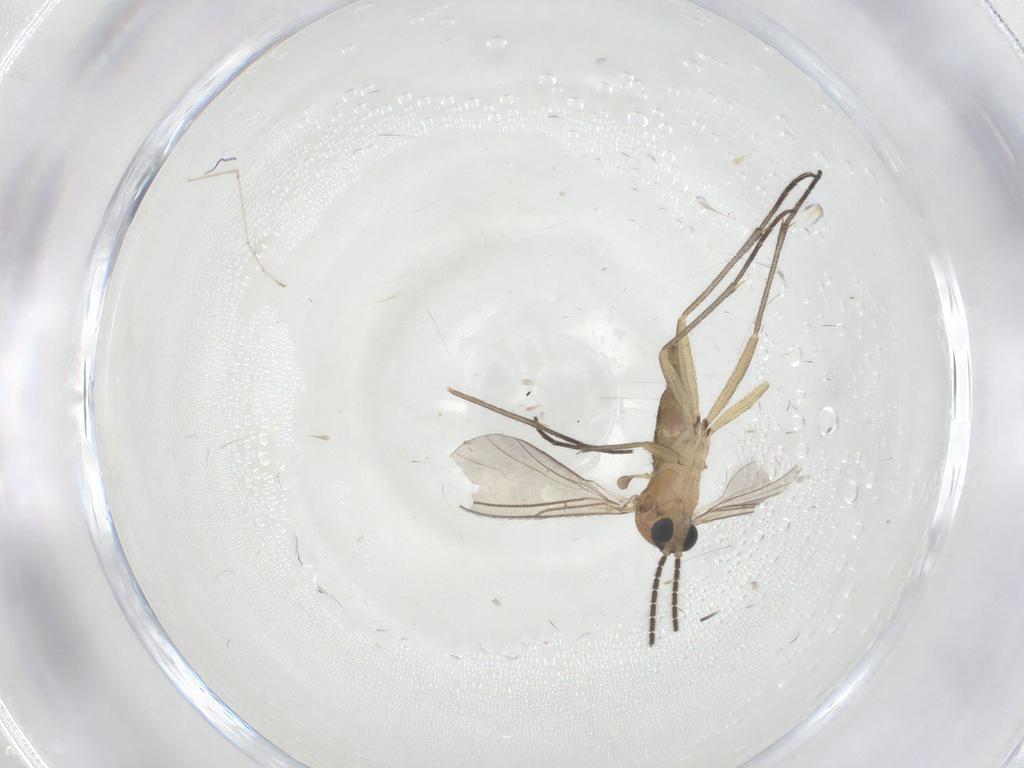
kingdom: Animalia
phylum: Arthropoda
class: Insecta
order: Diptera
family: Sciaridae
